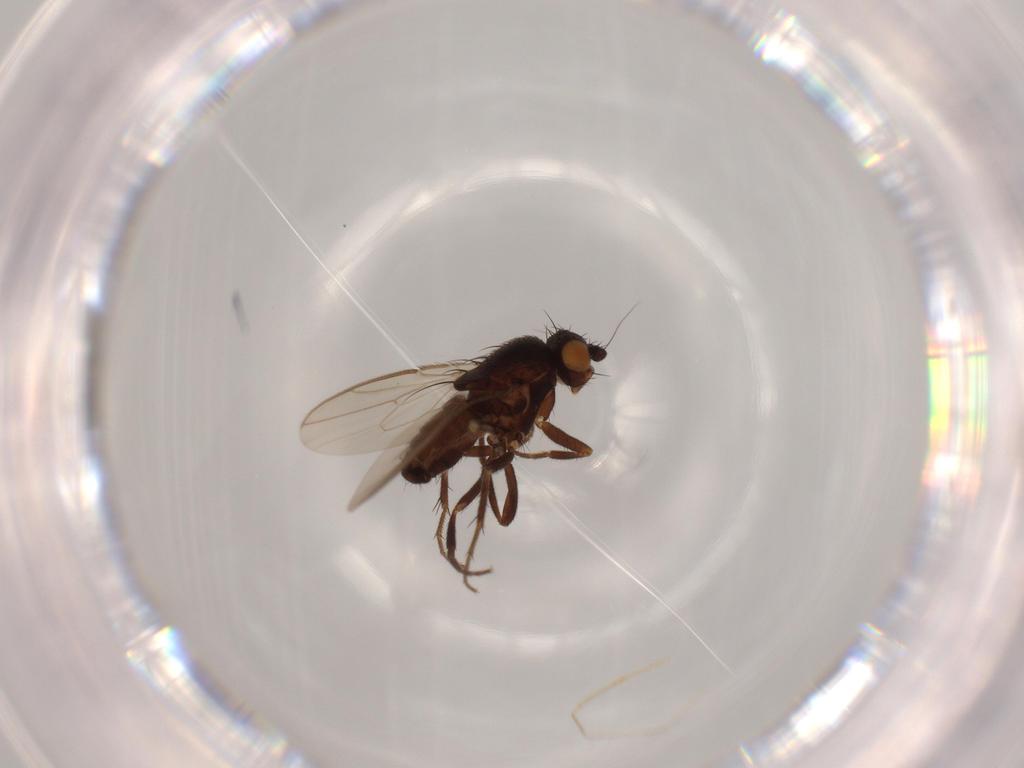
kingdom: Animalia
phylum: Arthropoda
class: Insecta
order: Diptera
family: Sphaeroceridae
